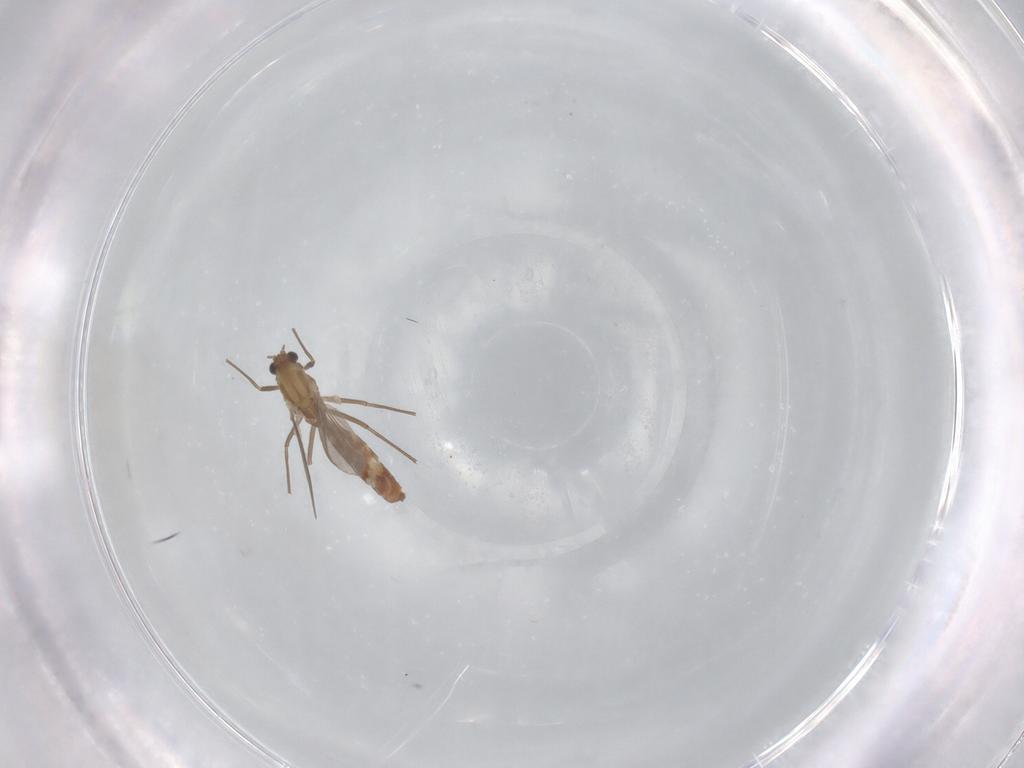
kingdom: Animalia
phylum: Arthropoda
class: Insecta
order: Diptera
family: Chironomidae
